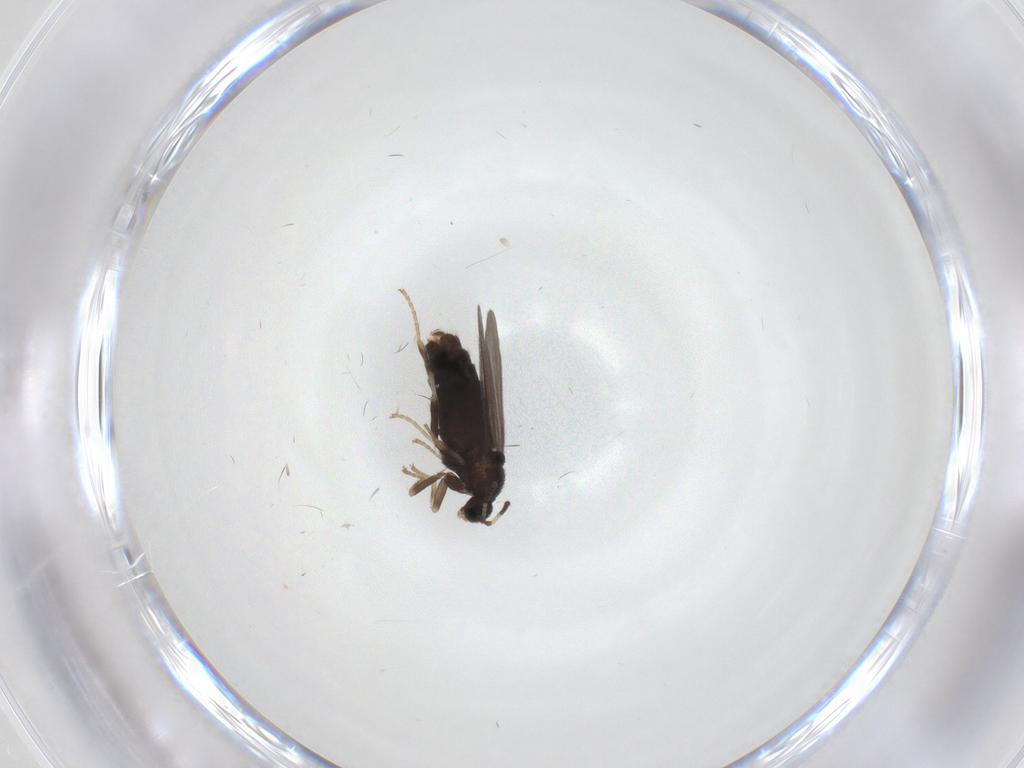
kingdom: Animalia
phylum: Arthropoda
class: Insecta
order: Diptera
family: Scatopsidae
